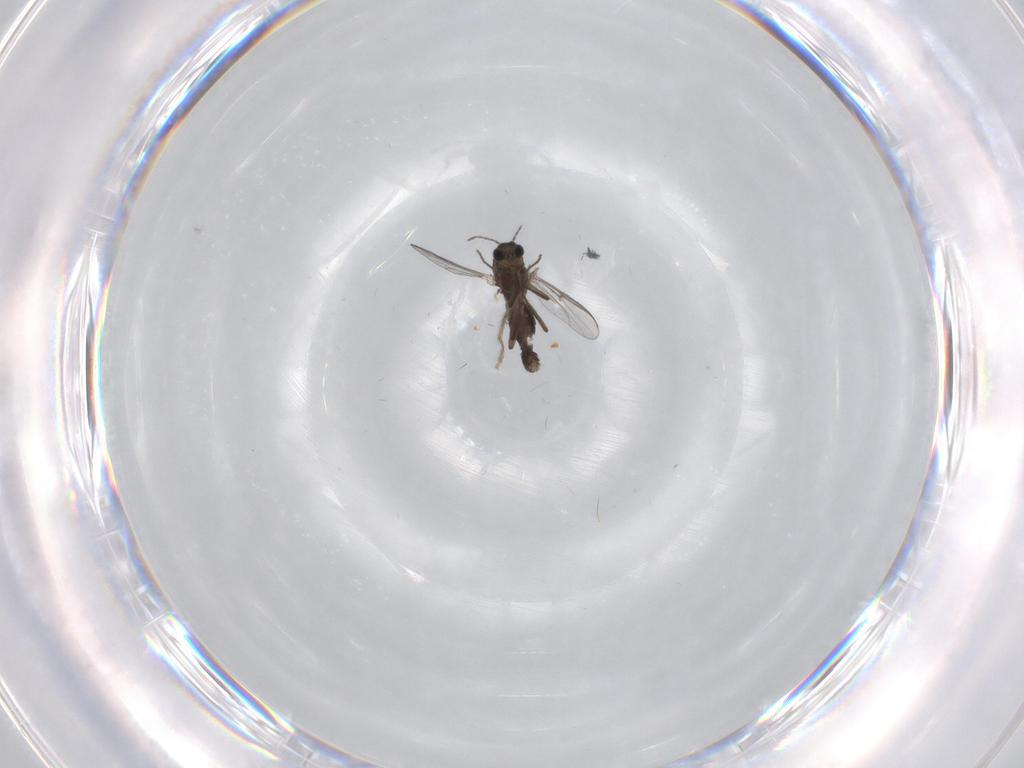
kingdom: Animalia
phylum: Arthropoda
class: Insecta
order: Diptera
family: Chironomidae
